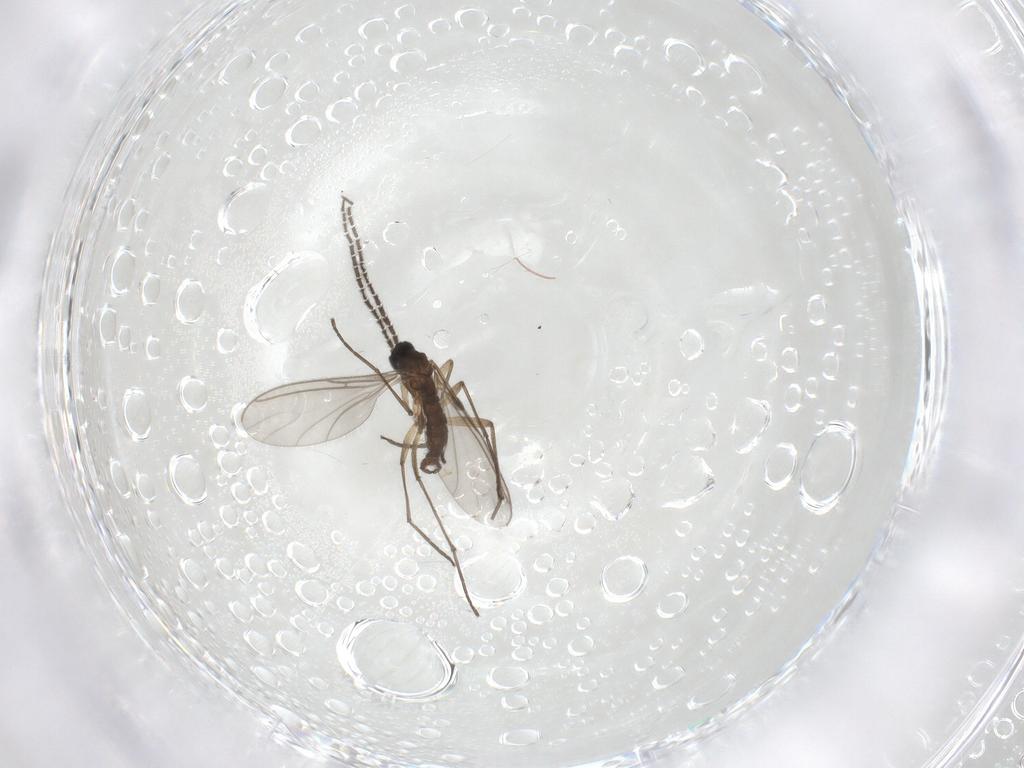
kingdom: Animalia
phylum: Arthropoda
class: Insecta
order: Diptera
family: Sciaridae
